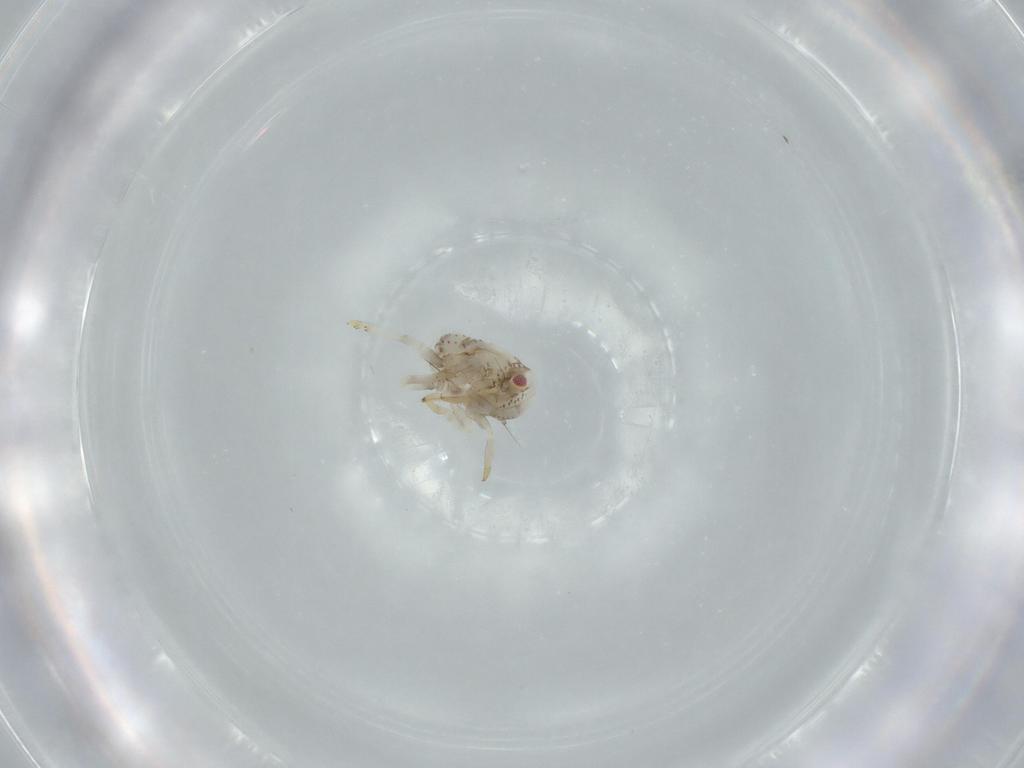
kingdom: Animalia
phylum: Arthropoda
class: Insecta
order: Hemiptera
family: Acanaloniidae
